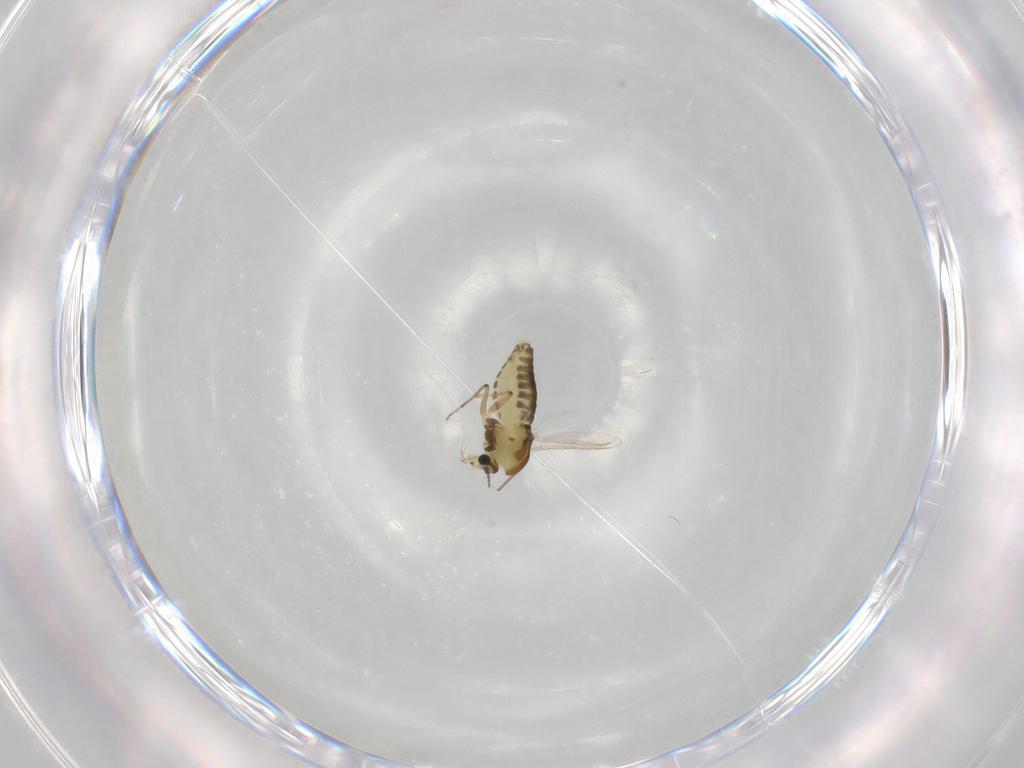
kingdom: Animalia
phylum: Arthropoda
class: Insecta
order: Diptera
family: Chironomidae
